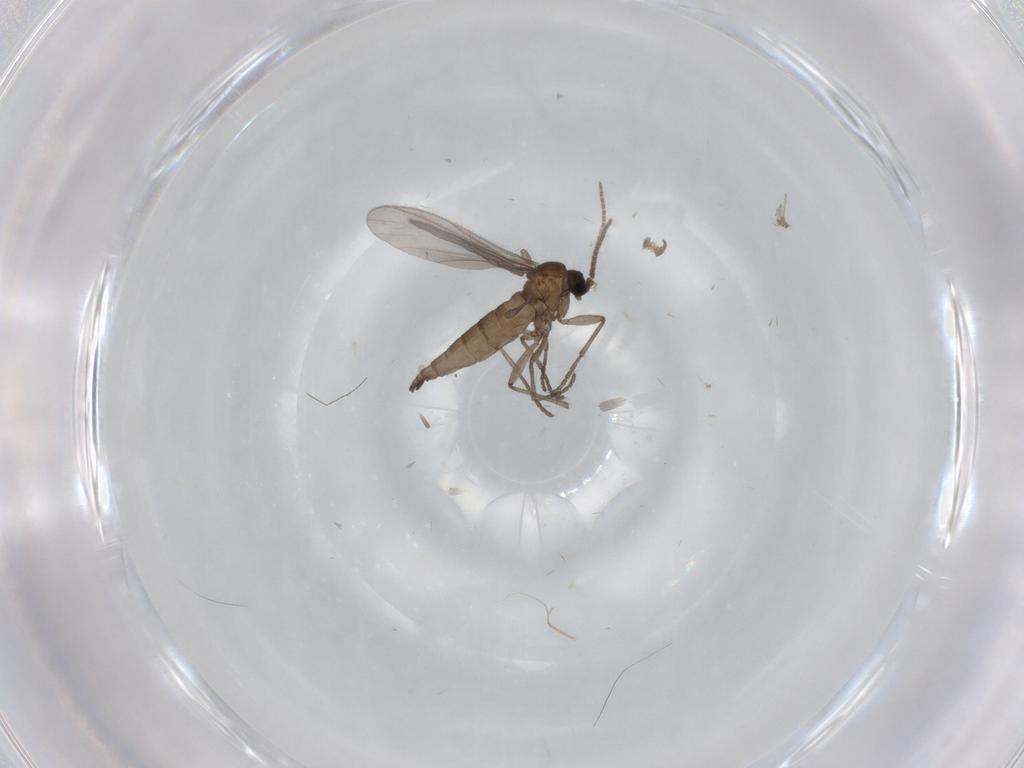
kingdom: Animalia
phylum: Arthropoda
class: Insecta
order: Diptera
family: Sciaridae
